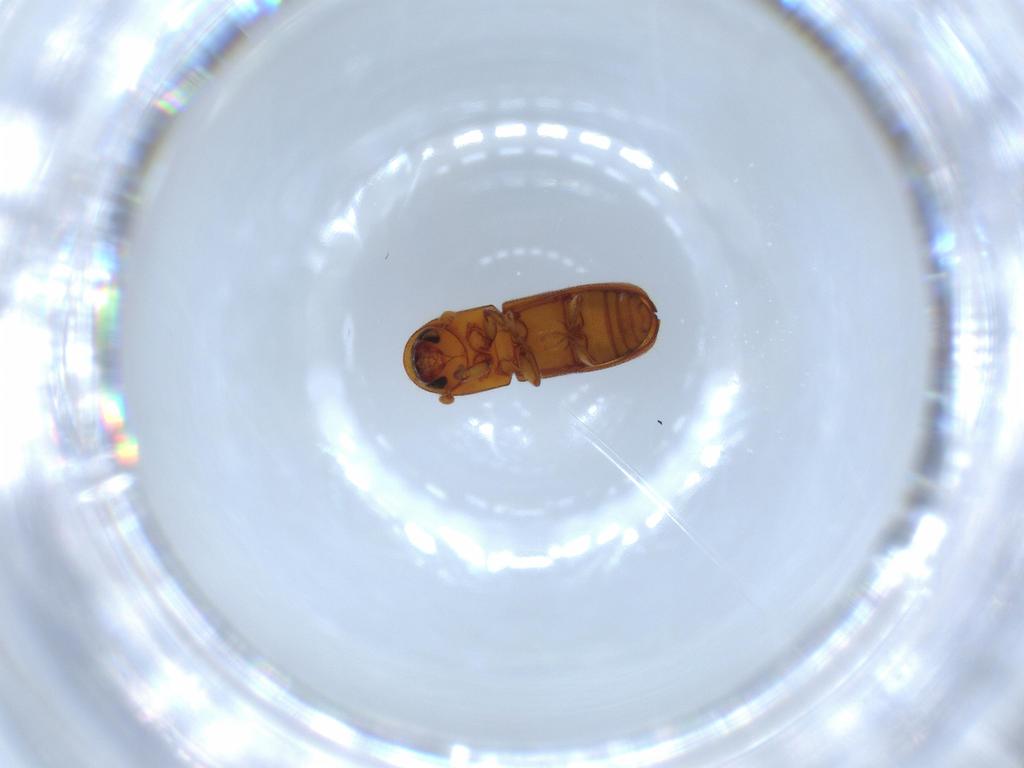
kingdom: Animalia
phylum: Arthropoda
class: Insecta
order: Coleoptera
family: Curculionidae
